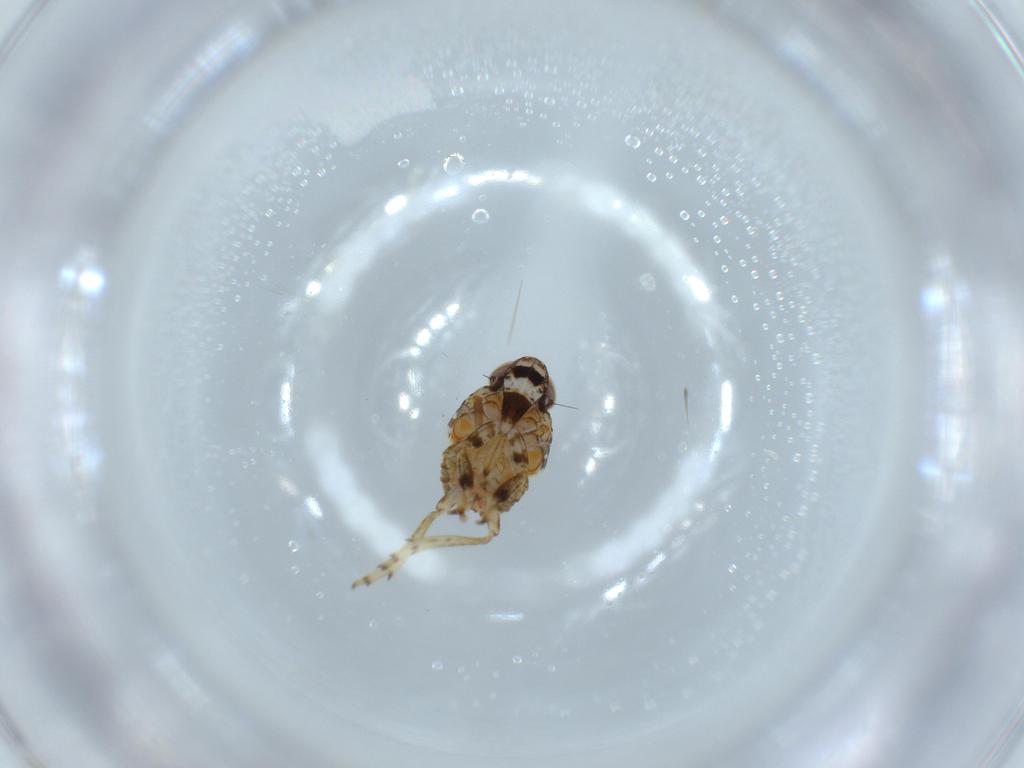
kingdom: Animalia
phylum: Arthropoda
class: Insecta
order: Hemiptera
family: Issidae
